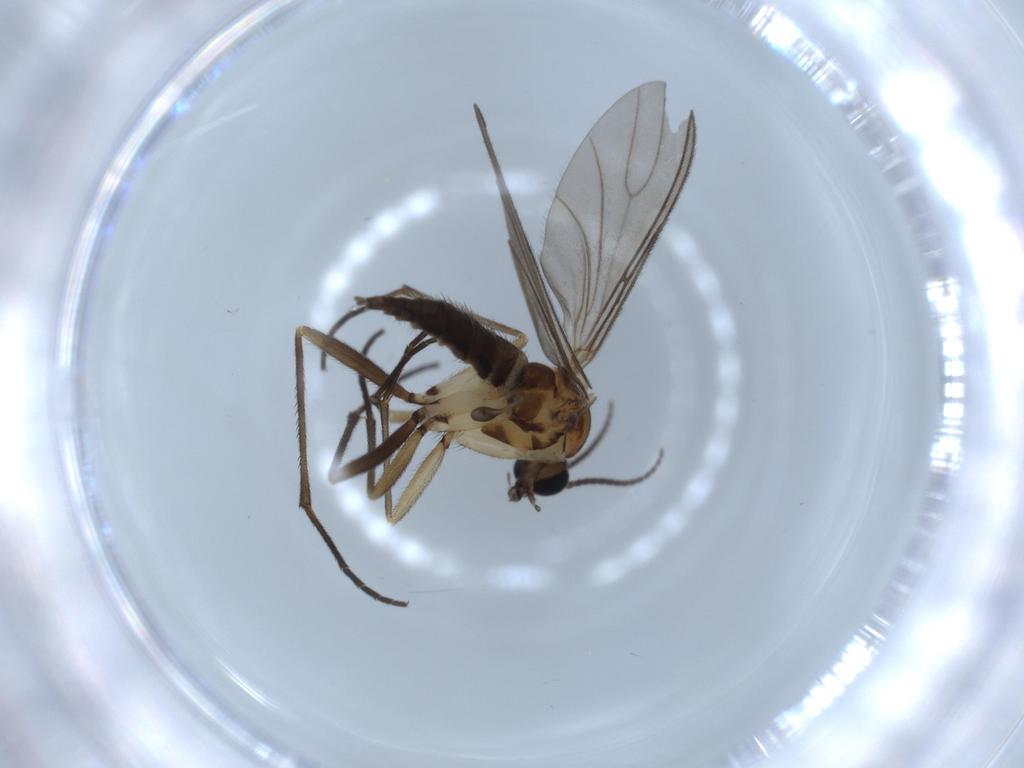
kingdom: Animalia
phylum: Arthropoda
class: Insecta
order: Diptera
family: Sciaridae
